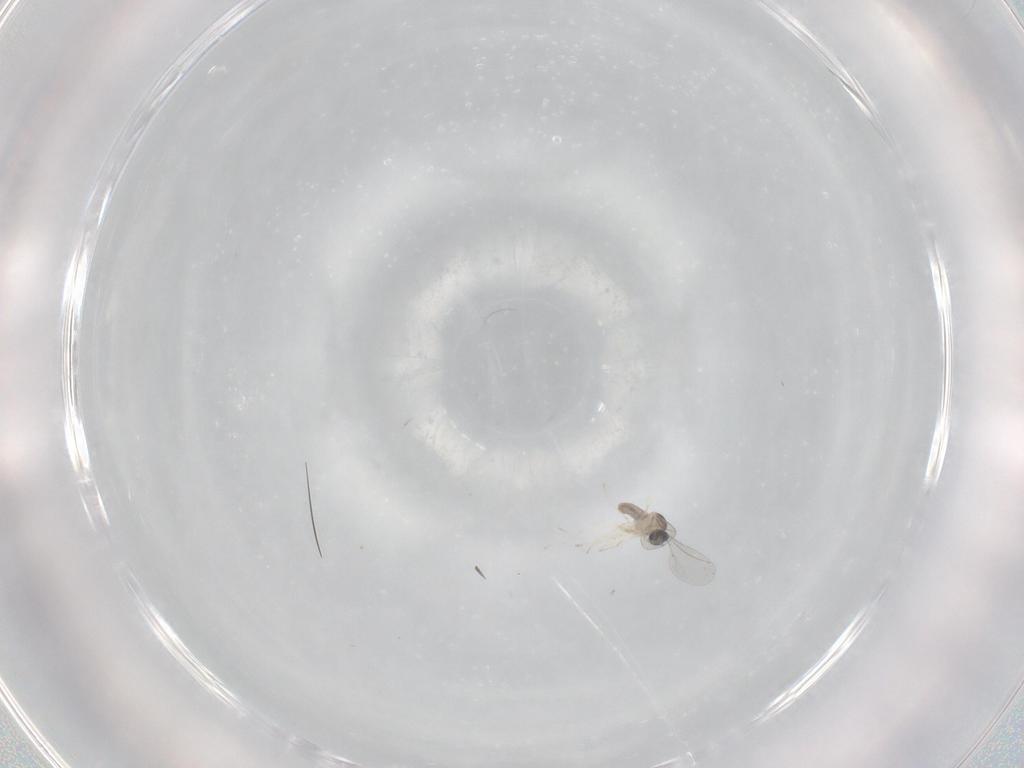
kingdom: Animalia
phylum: Arthropoda
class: Insecta
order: Diptera
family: Cecidomyiidae
